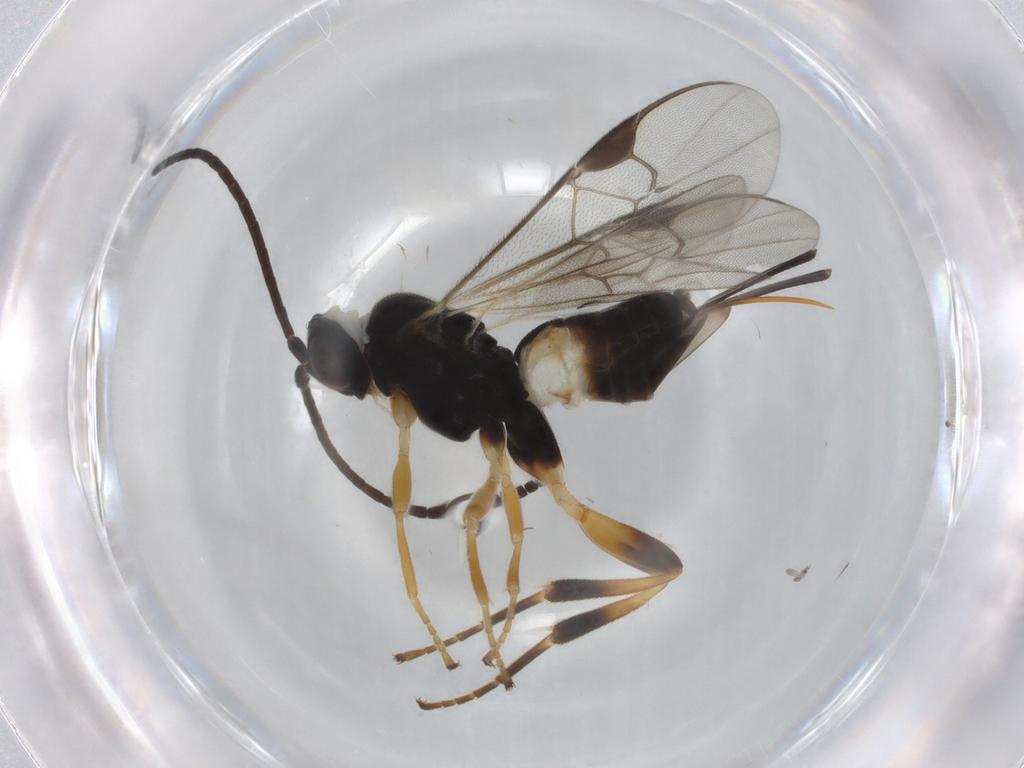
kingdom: Animalia
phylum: Arthropoda
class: Insecta
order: Hymenoptera
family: Braconidae
